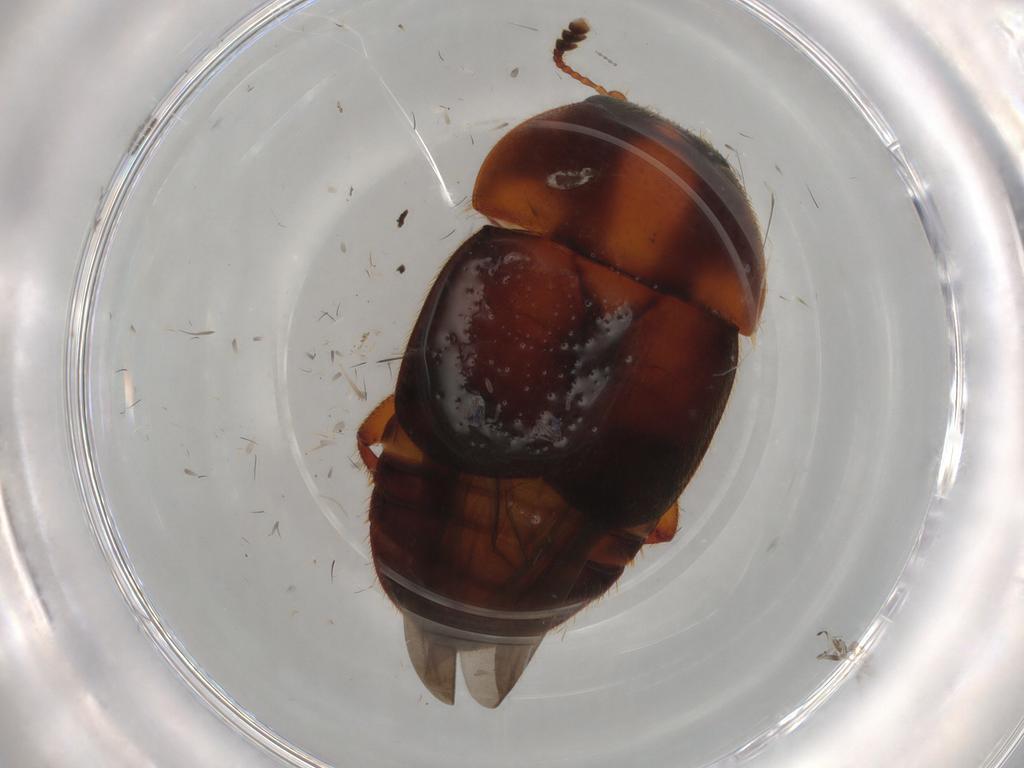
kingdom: Animalia
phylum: Arthropoda
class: Insecta
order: Coleoptera
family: Nitidulidae
